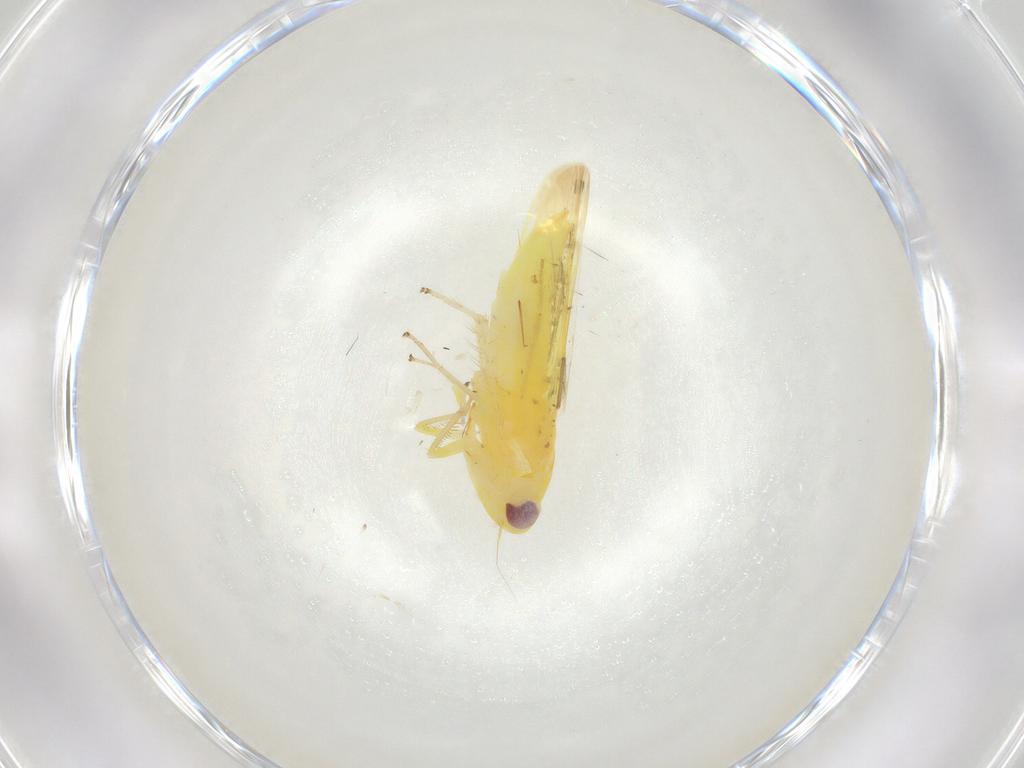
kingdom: Animalia
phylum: Arthropoda
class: Insecta
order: Hemiptera
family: Cicadellidae
